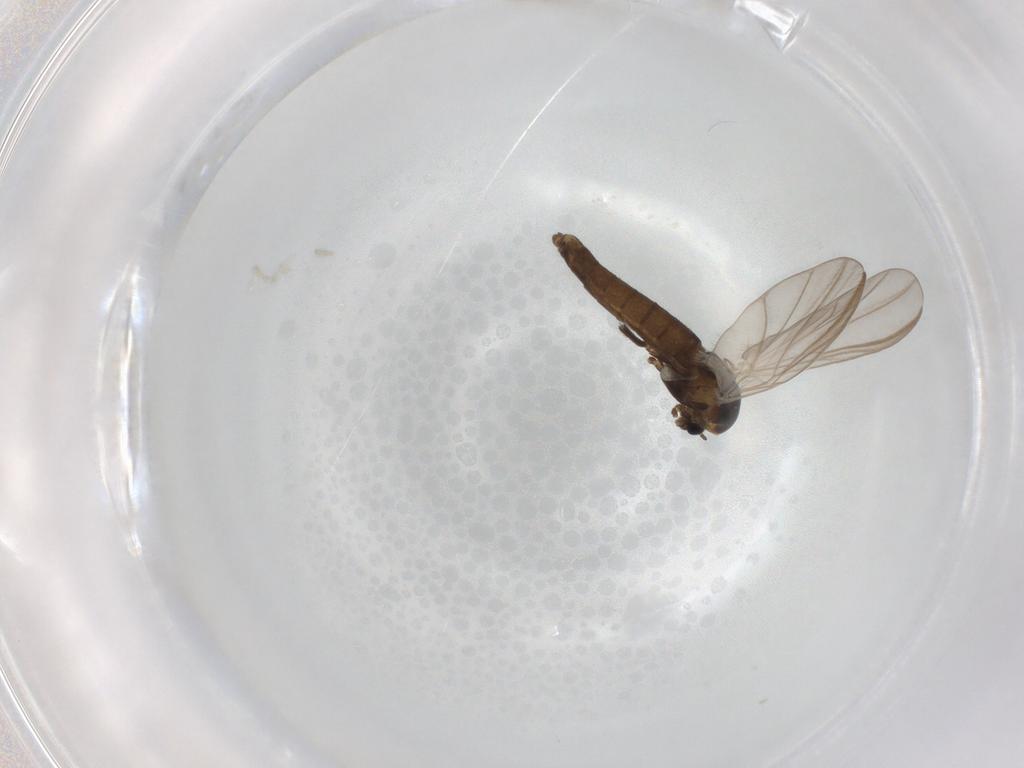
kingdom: Animalia
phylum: Arthropoda
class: Insecta
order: Diptera
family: Chironomidae
